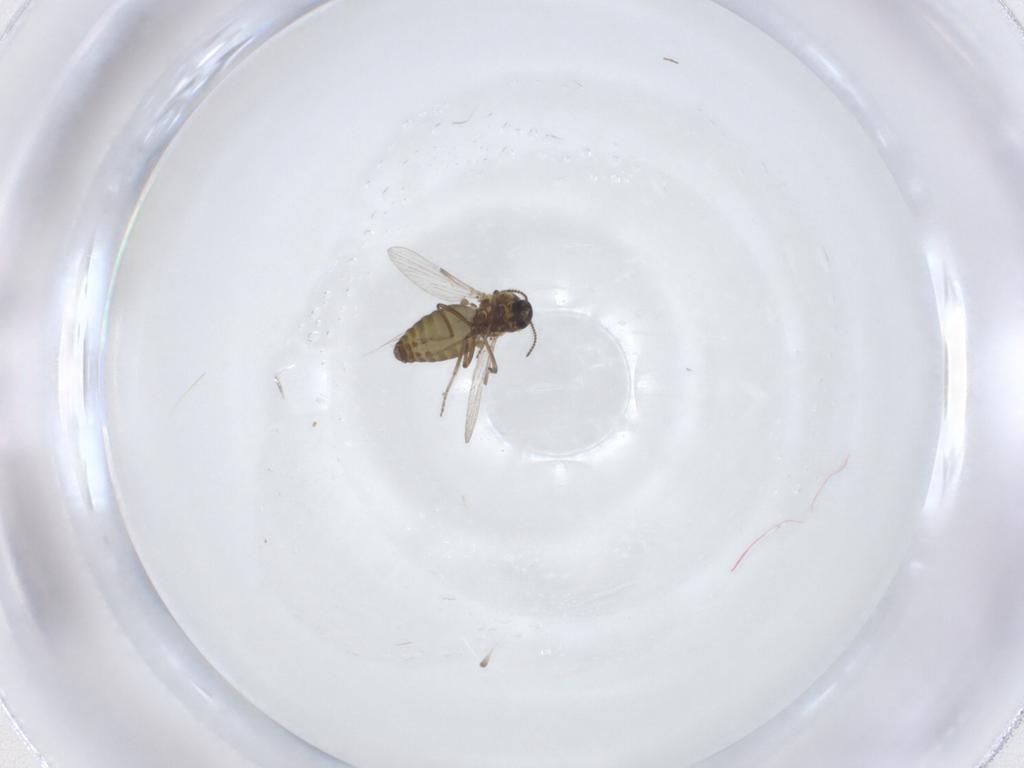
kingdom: Animalia
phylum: Arthropoda
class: Insecta
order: Diptera
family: Ceratopogonidae
